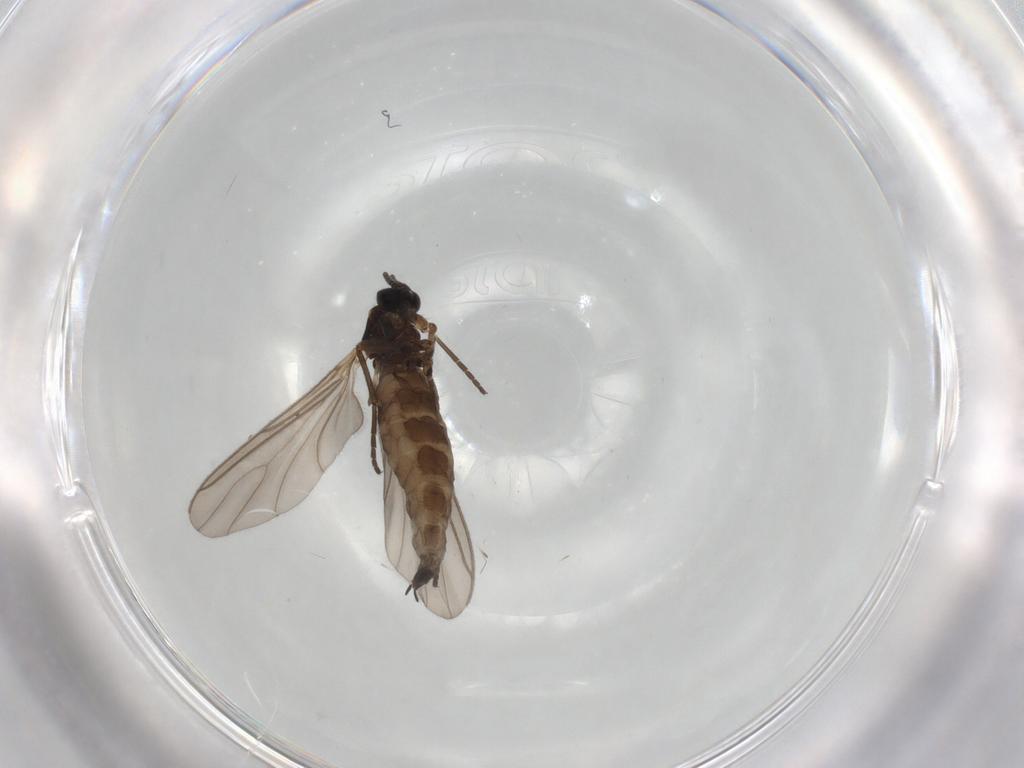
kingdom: Animalia
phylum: Arthropoda
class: Insecta
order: Diptera
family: Sciaridae
